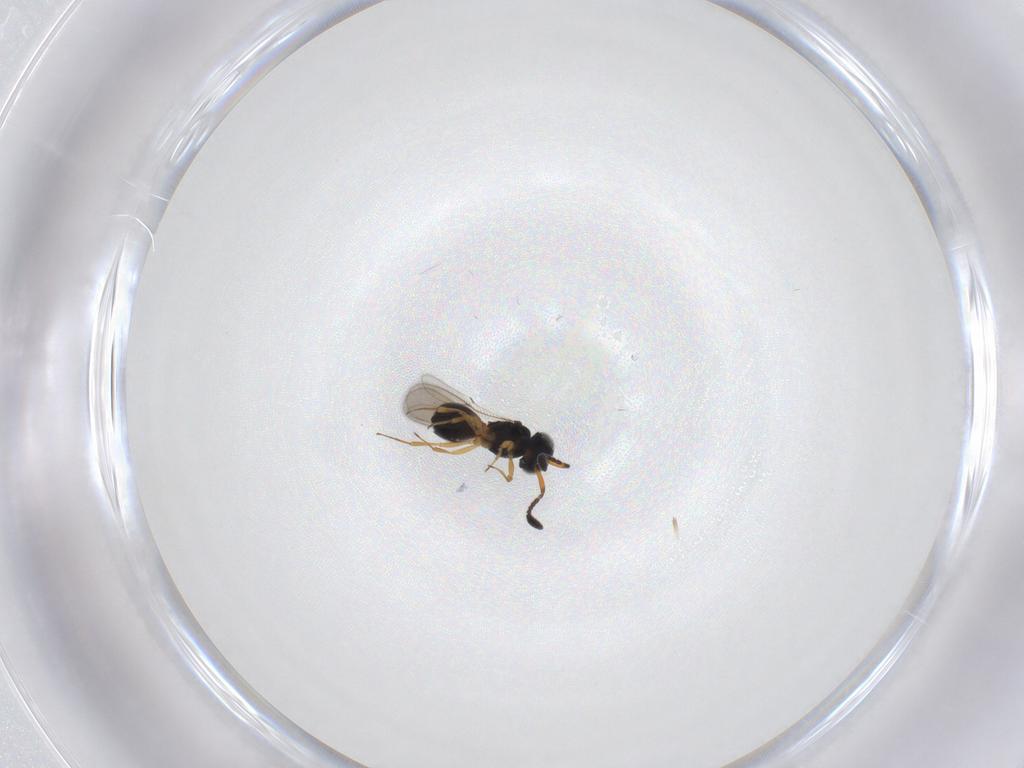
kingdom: Animalia
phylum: Arthropoda
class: Insecta
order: Hymenoptera
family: Scelionidae
